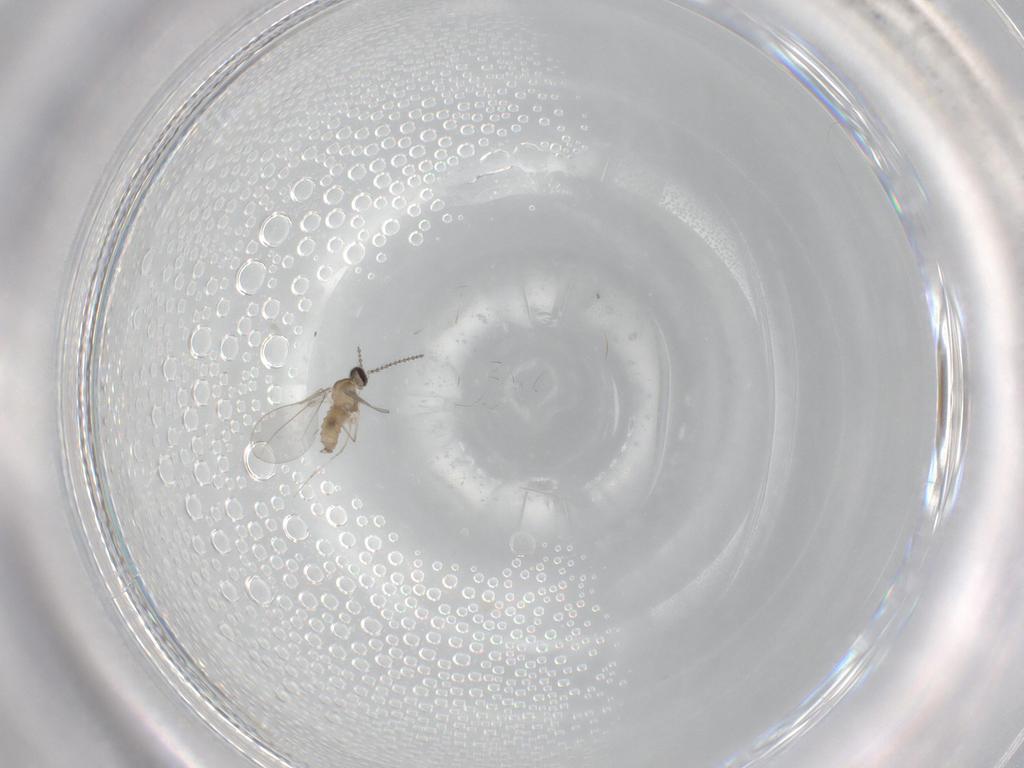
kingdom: Animalia
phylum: Arthropoda
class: Insecta
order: Diptera
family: Cecidomyiidae
